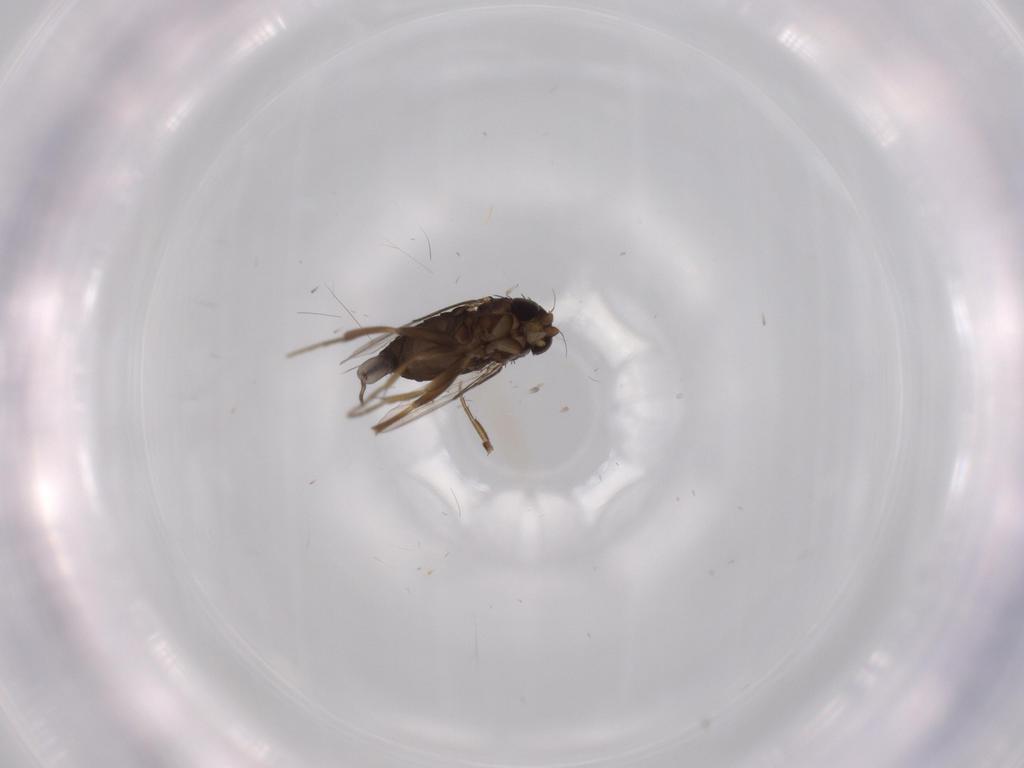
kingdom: Animalia
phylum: Arthropoda
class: Insecta
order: Diptera
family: Phoridae
